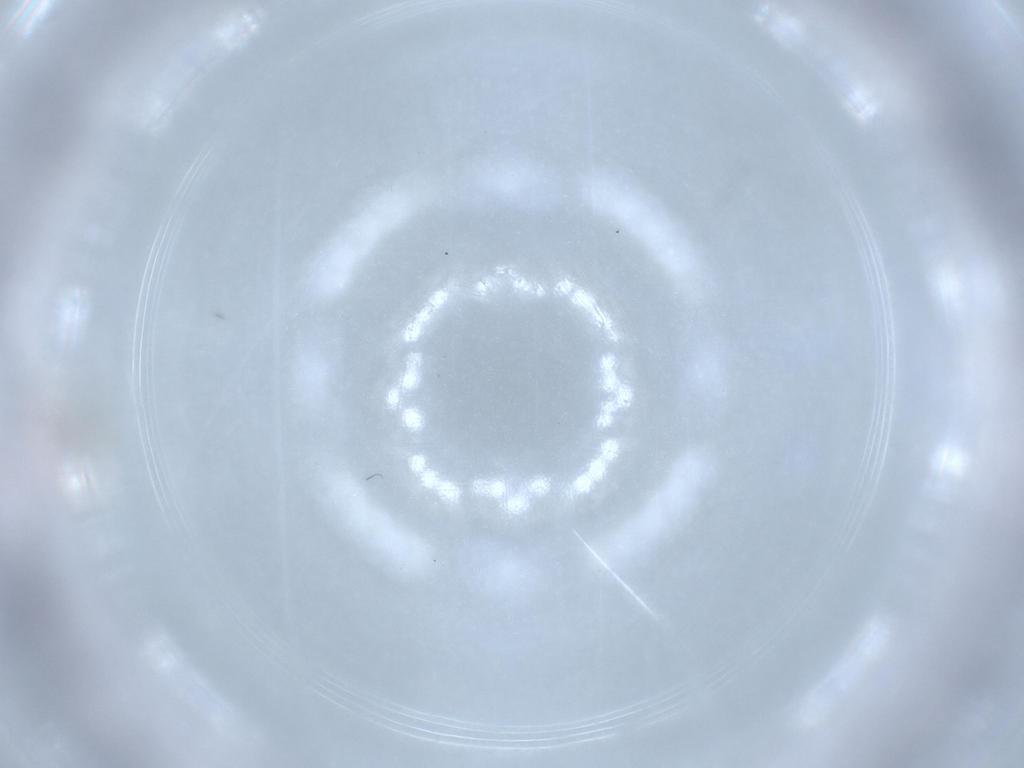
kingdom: Animalia
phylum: Arthropoda
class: Insecta
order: Diptera
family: Cecidomyiidae
